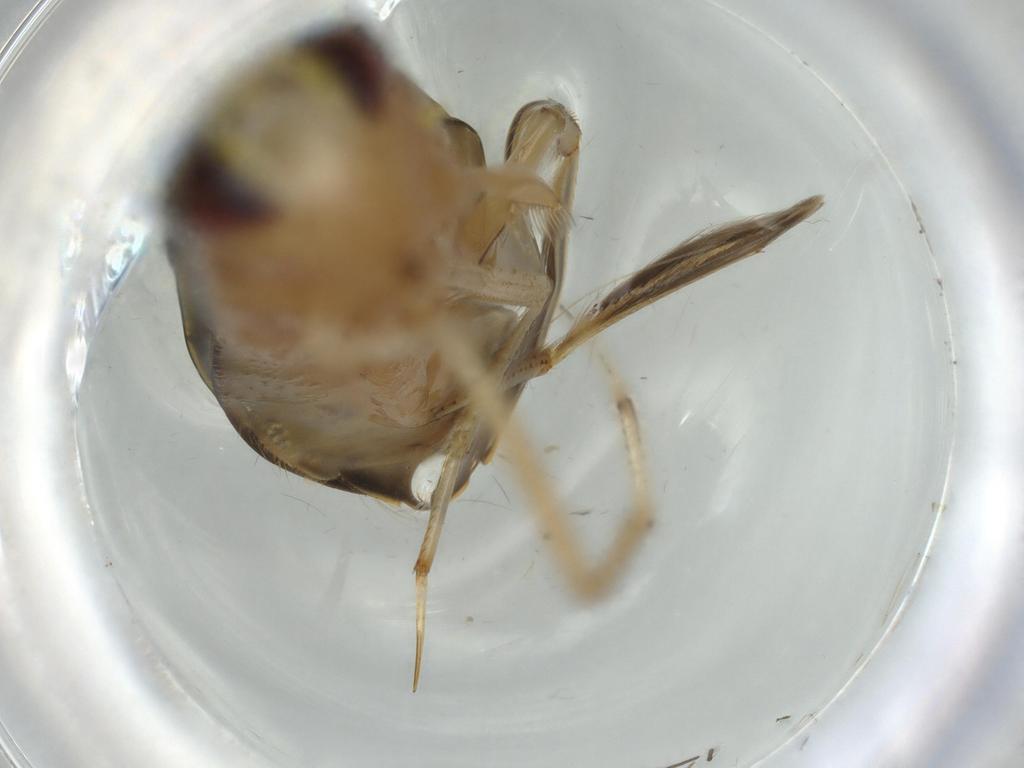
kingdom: Animalia
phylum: Arthropoda
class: Insecta
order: Hemiptera
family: Corixidae
